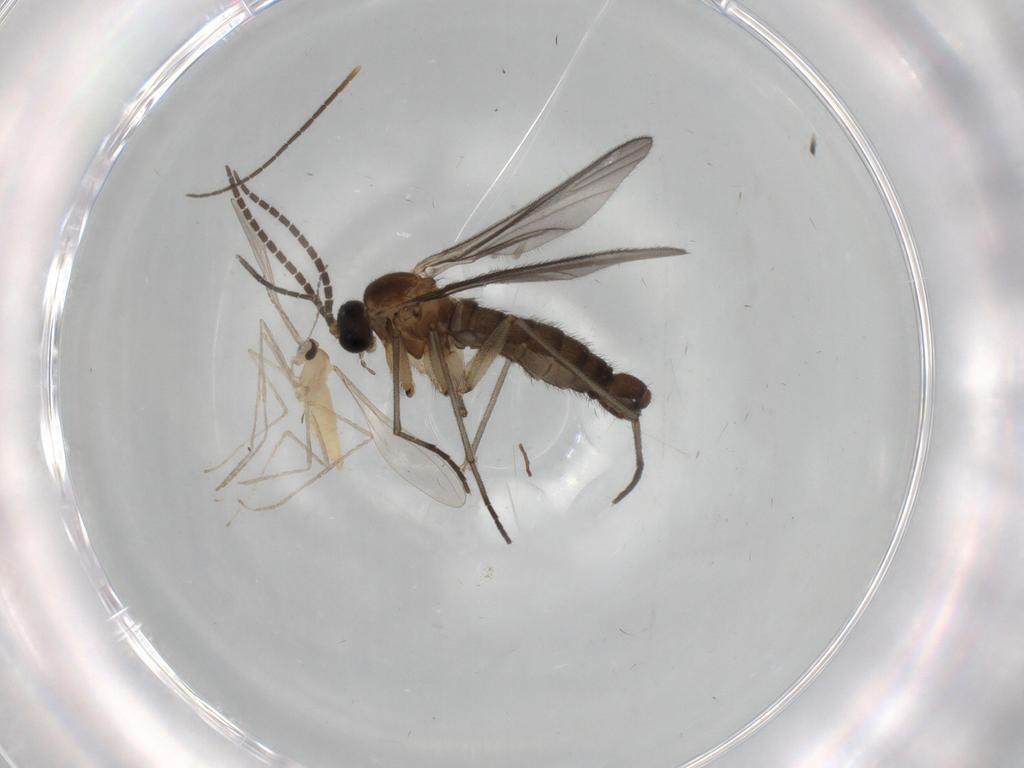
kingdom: Animalia
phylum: Arthropoda
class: Insecta
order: Diptera
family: Sciaridae
